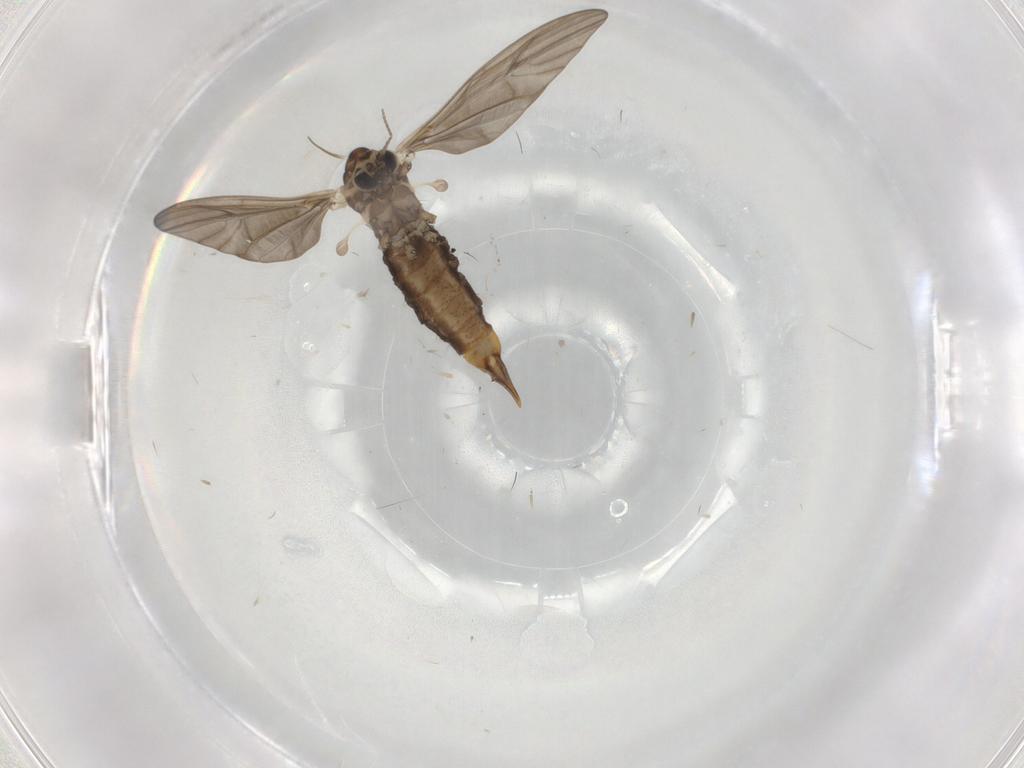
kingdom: Animalia
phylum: Arthropoda
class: Insecta
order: Diptera
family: Limoniidae
